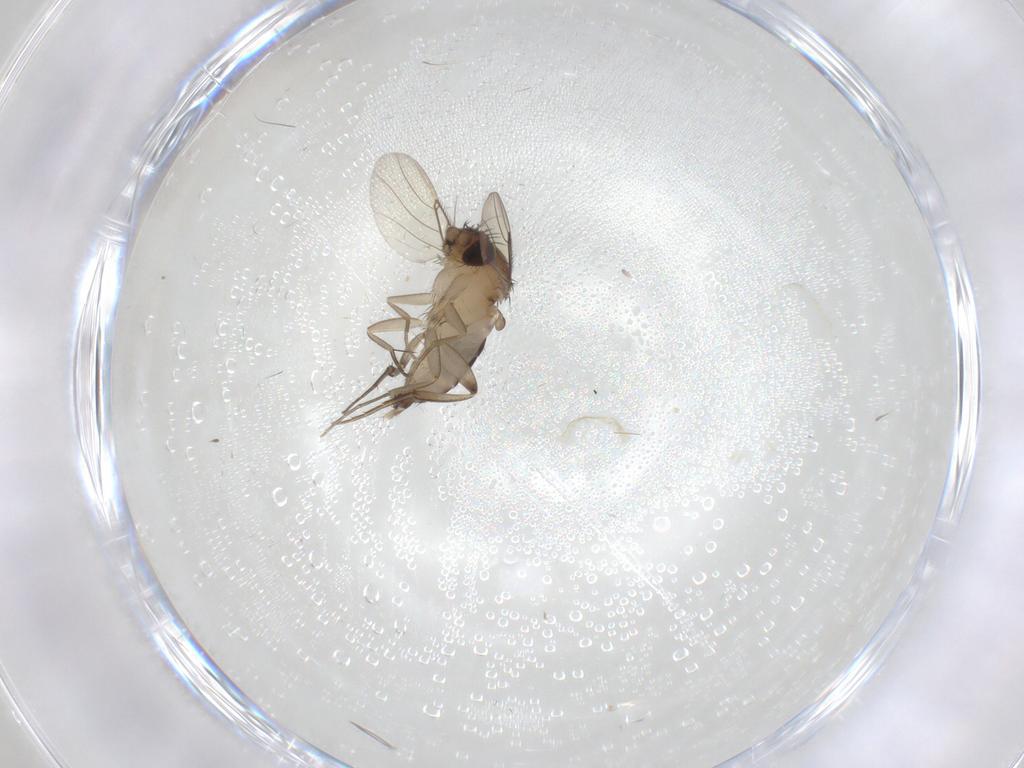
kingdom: Animalia
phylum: Arthropoda
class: Insecta
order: Diptera
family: Phoridae
